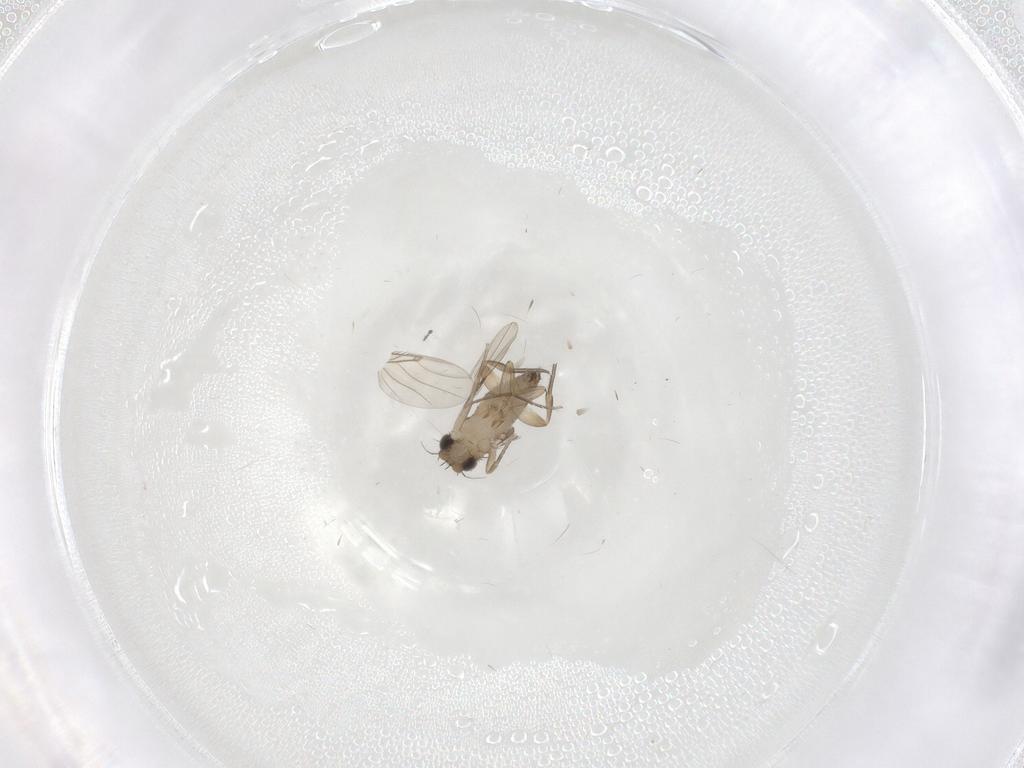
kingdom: Animalia
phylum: Arthropoda
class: Insecta
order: Diptera
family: Phoridae
